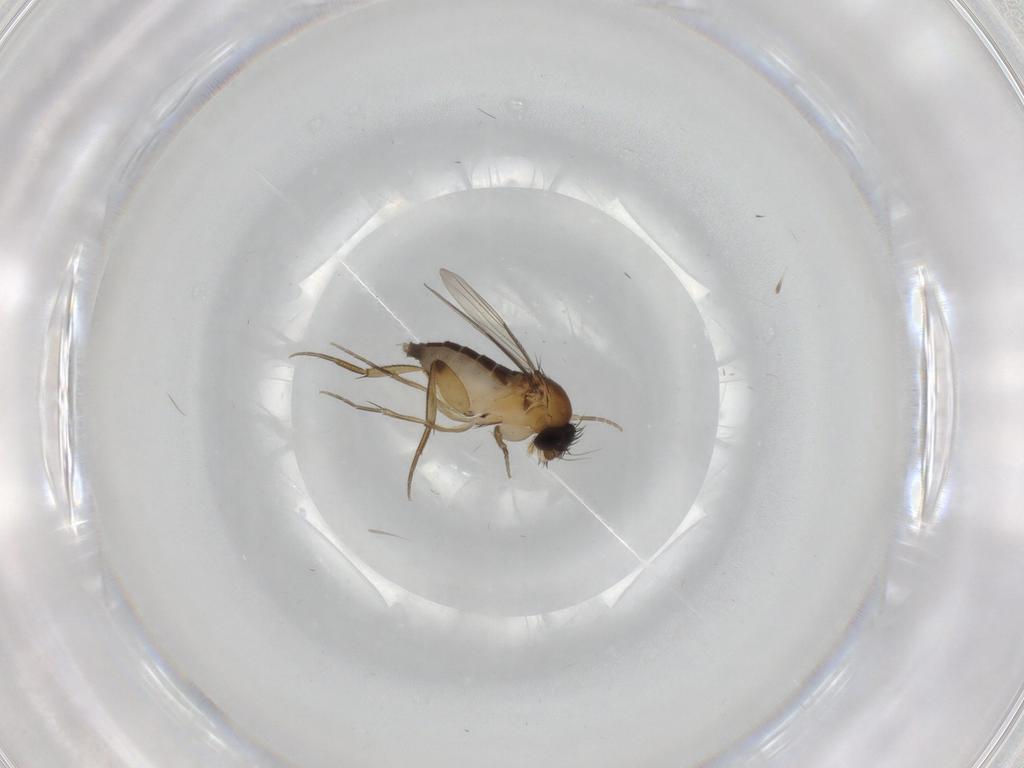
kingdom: Animalia
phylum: Arthropoda
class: Insecta
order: Diptera
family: Phoridae
